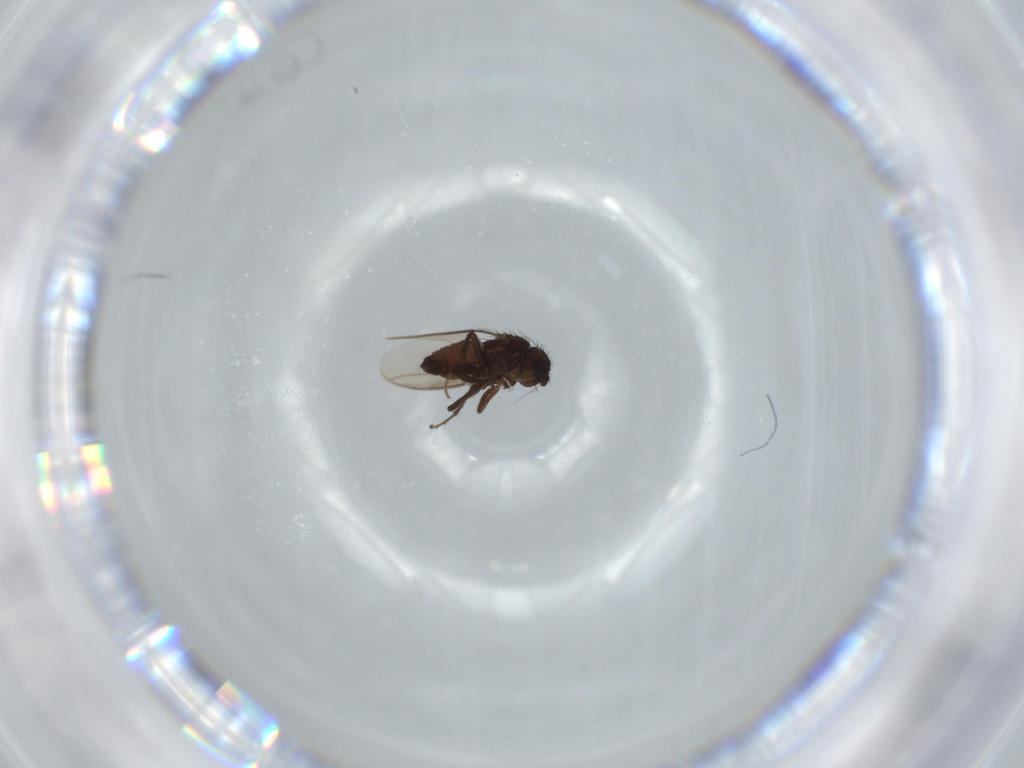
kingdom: Animalia
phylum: Arthropoda
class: Insecta
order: Diptera
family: Sphaeroceridae
